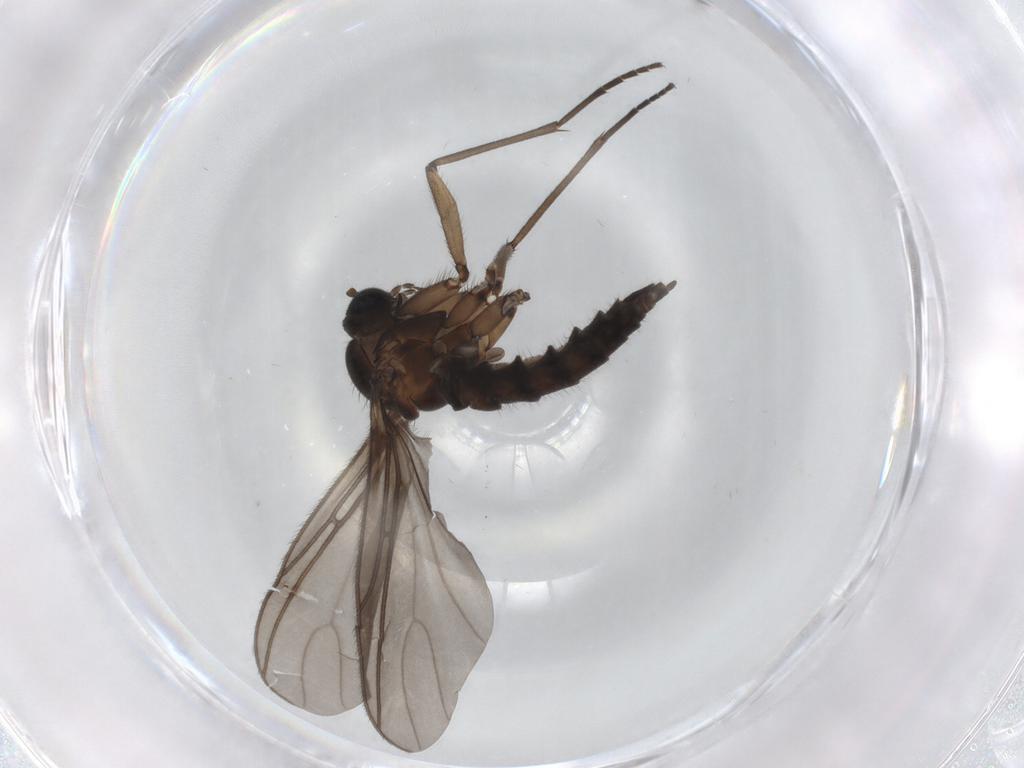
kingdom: Animalia
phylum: Arthropoda
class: Insecta
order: Diptera
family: Sciaridae
